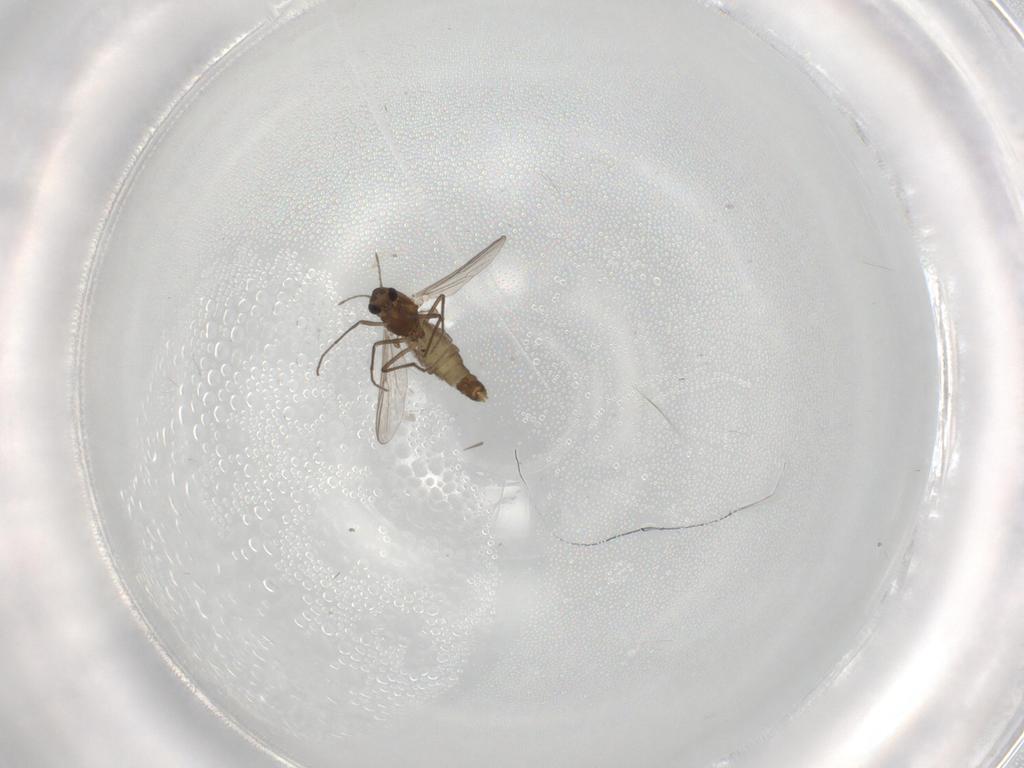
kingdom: Animalia
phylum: Arthropoda
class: Insecta
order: Diptera
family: Chironomidae
